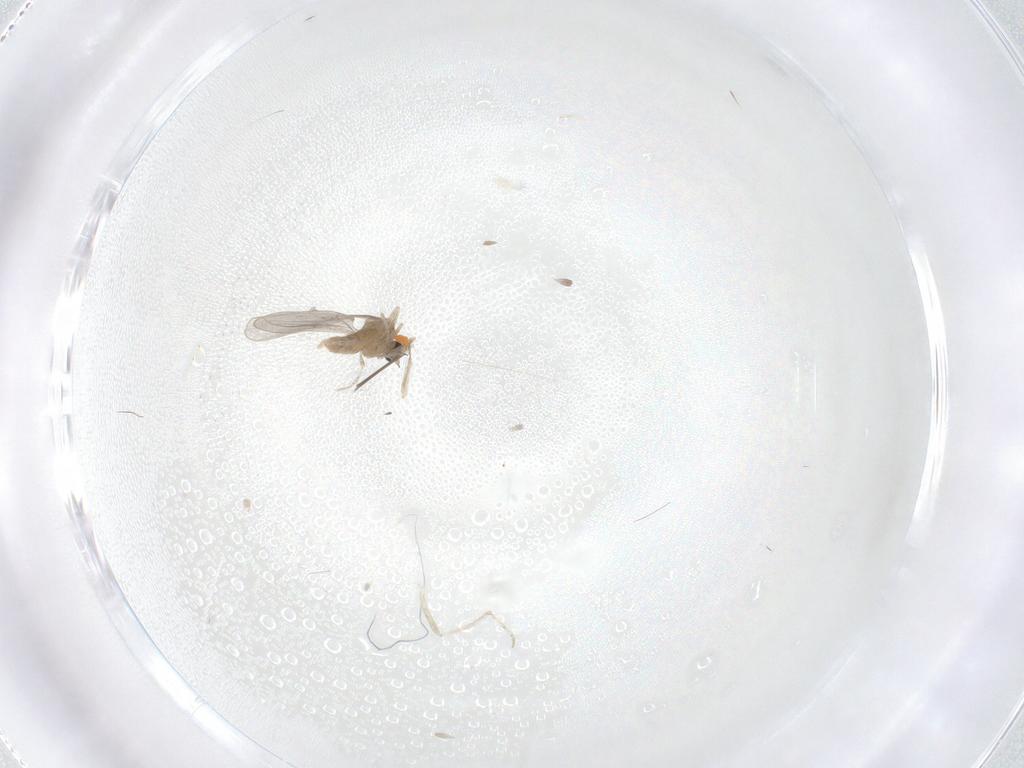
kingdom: Animalia
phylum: Arthropoda
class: Insecta
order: Diptera
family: Cecidomyiidae
